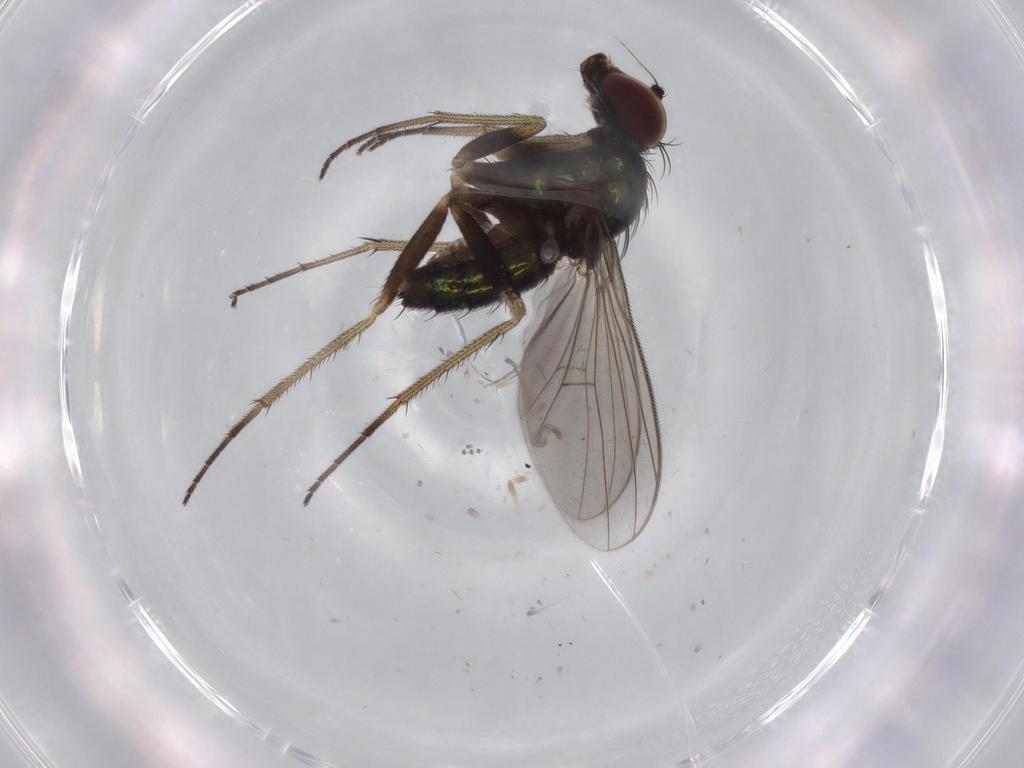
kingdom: Animalia
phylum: Arthropoda
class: Insecta
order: Diptera
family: Dolichopodidae
